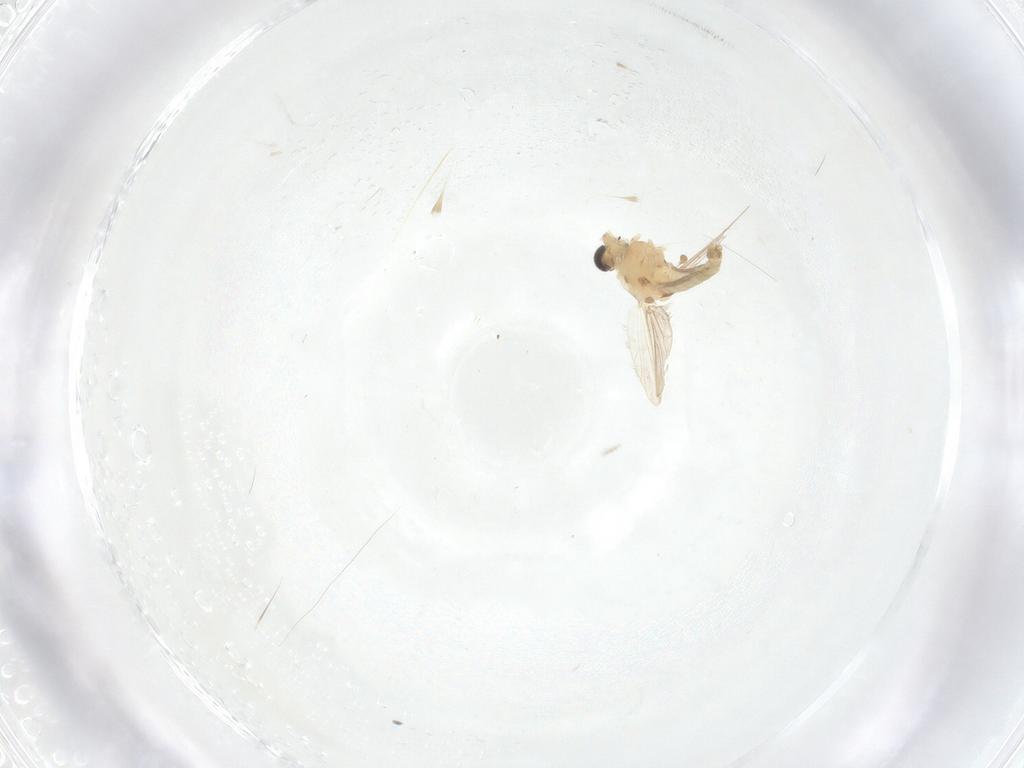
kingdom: Animalia
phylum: Arthropoda
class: Insecta
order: Diptera
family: Chironomidae
